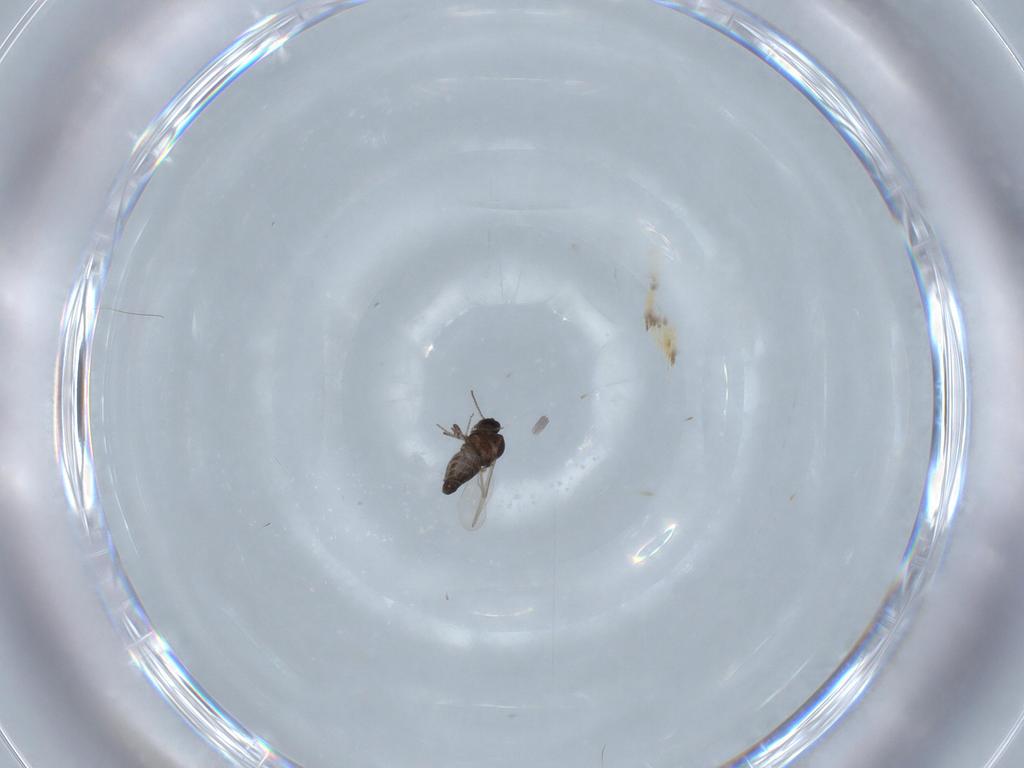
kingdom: Animalia
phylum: Arthropoda
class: Insecta
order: Diptera
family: Ceratopogonidae
